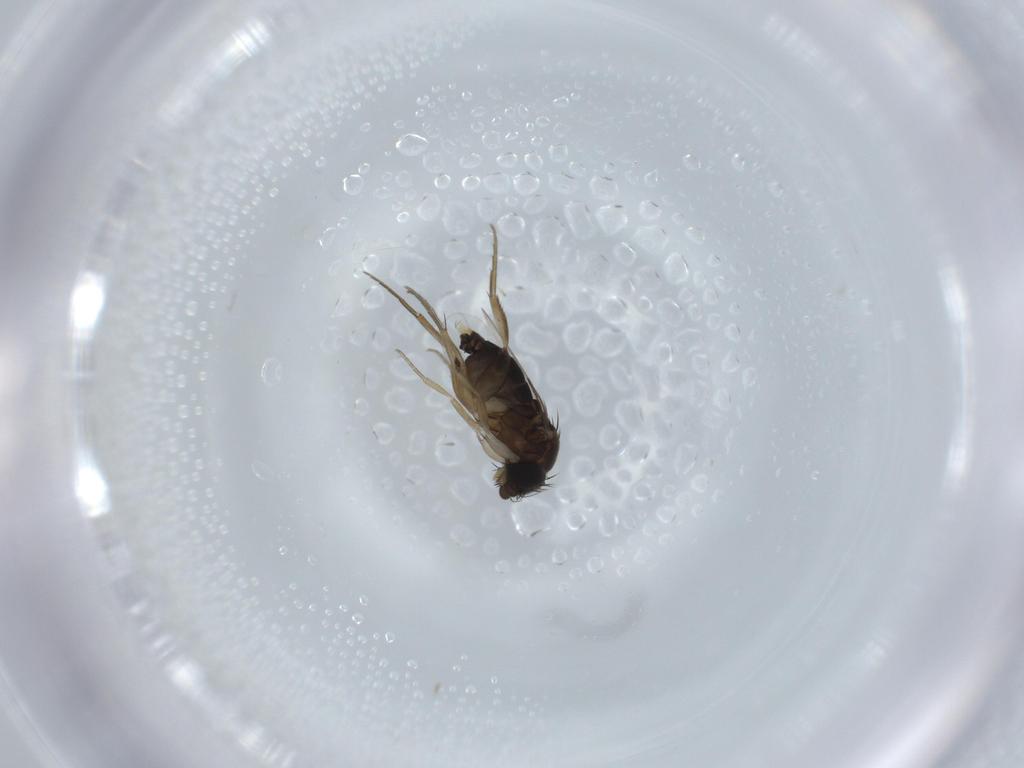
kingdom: Animalia
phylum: Arthropoda
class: Insecta
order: Diptera
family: Phoridae
